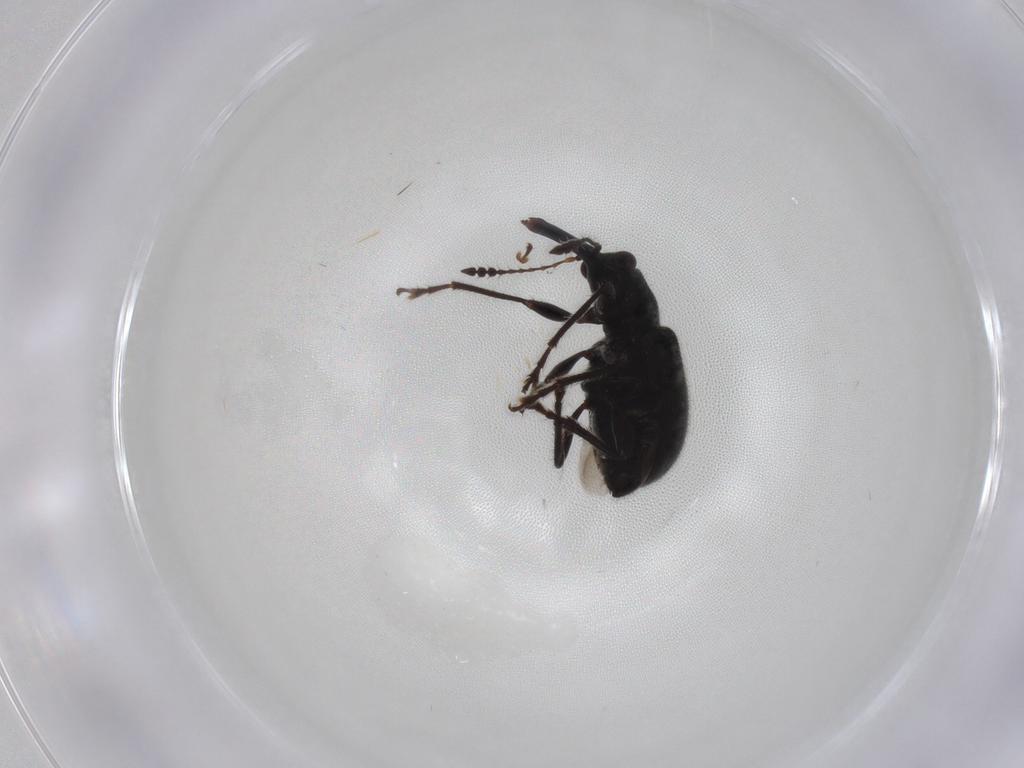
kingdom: Animalia
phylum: Arthropoda
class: Insecta
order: Coleoptera
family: Attelabidae
